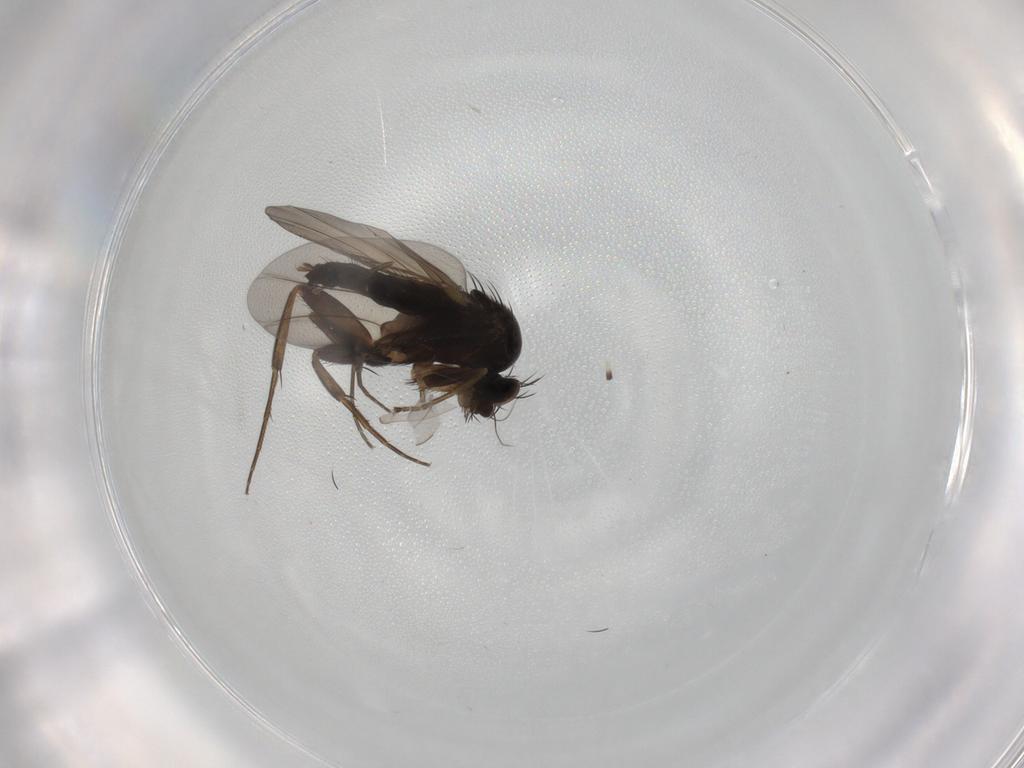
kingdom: Animalia
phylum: Arthropoda
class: Insecta
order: Diptera
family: Phoridae
